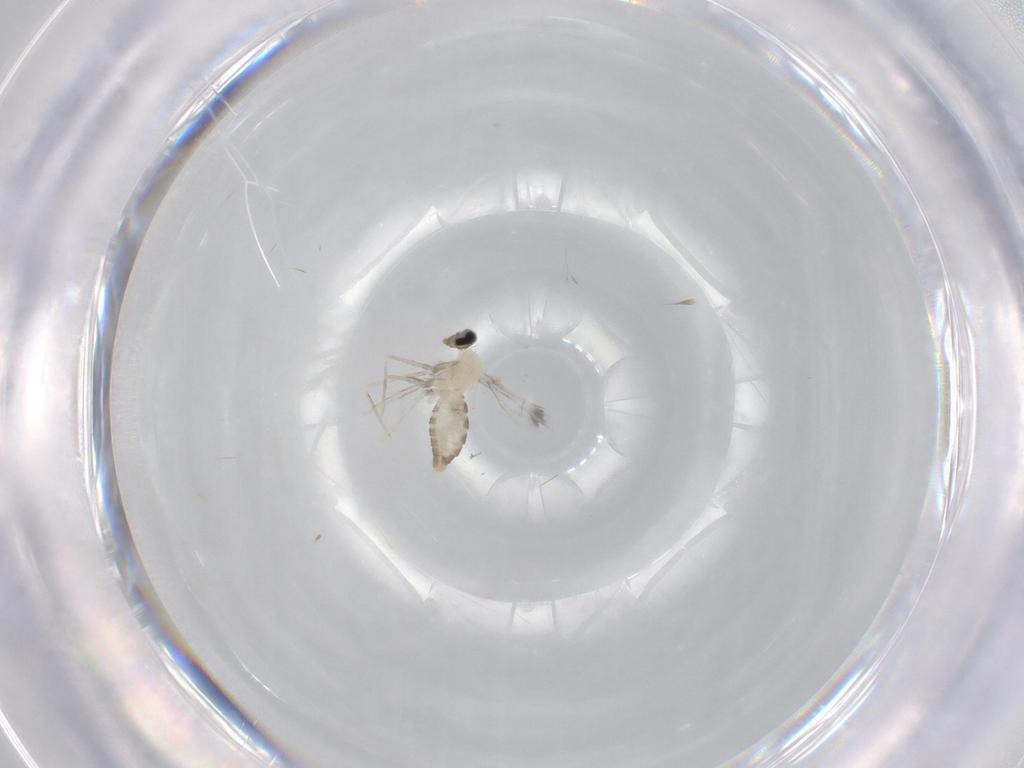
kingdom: Animalia
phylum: Arthropoda
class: Insecta
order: Diptera
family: Cecidomyiidae
